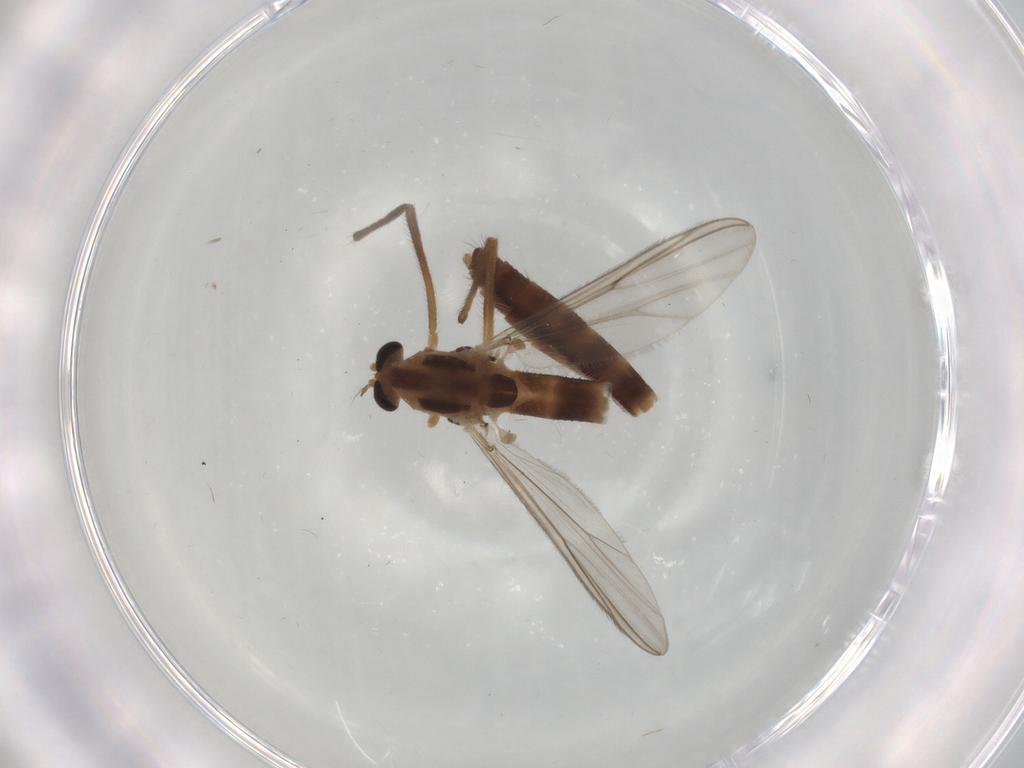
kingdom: Animalia
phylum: Arthropoda
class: Insecta
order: Diptera
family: Chironomidae
